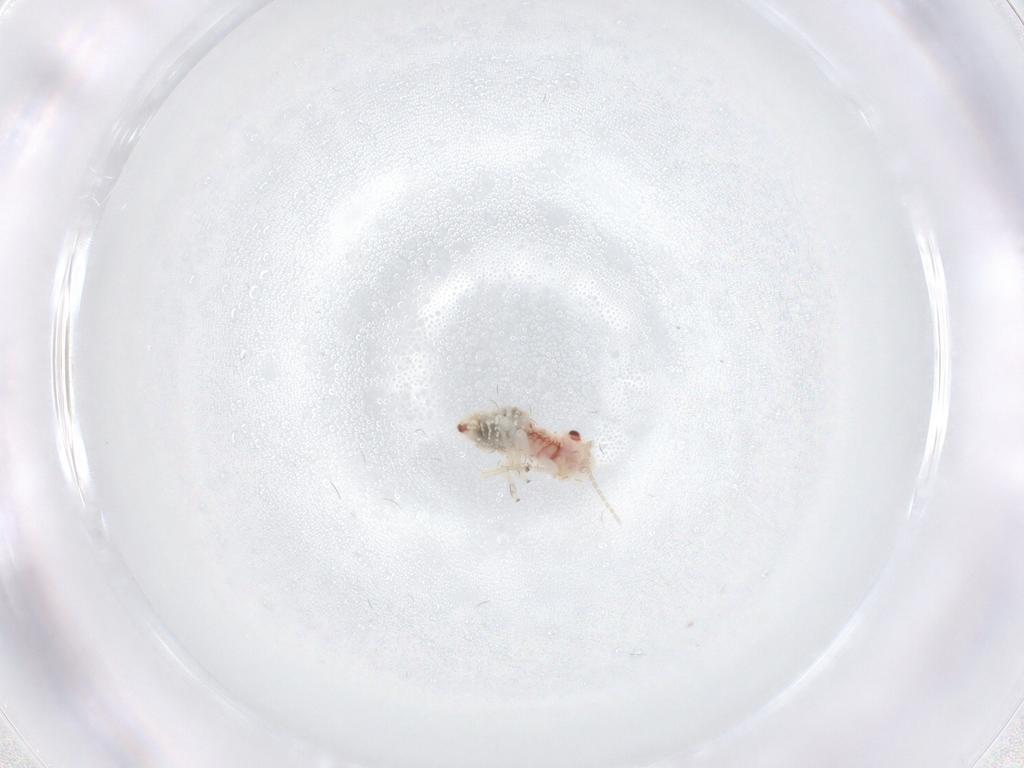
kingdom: Animalia
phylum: Arthropoda
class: Insecta
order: Psocodea
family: Amphipsocidae
